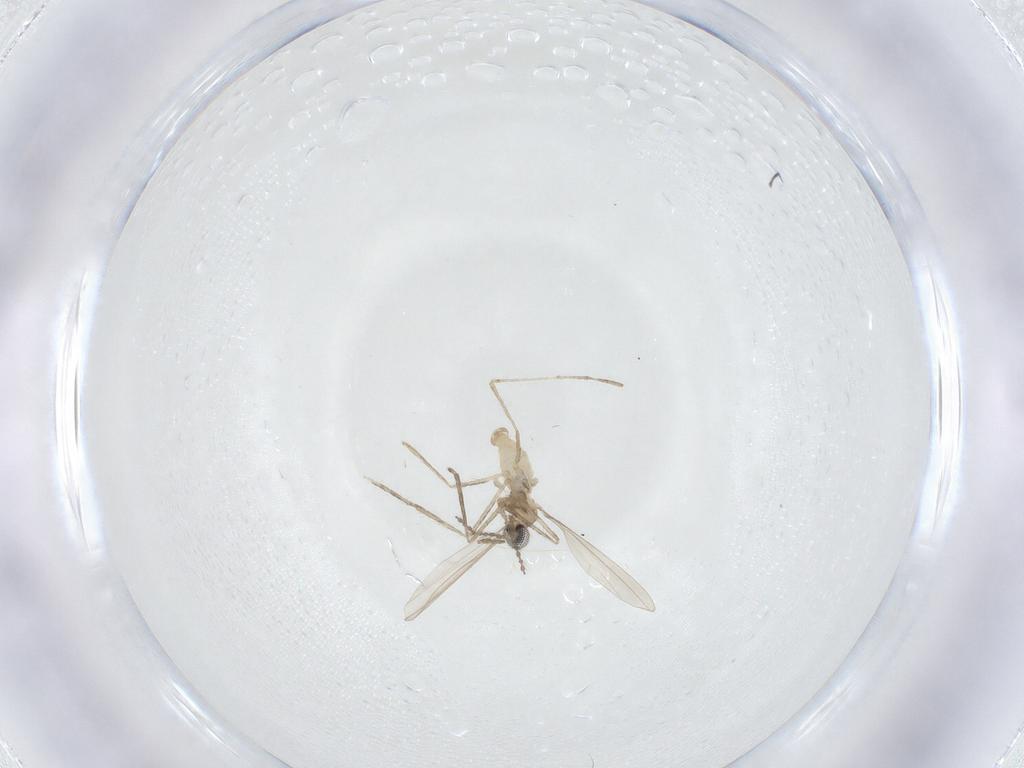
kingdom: Animalia
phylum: Arthropoda
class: Insecta
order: Diptera
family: Cecidomyiidae
